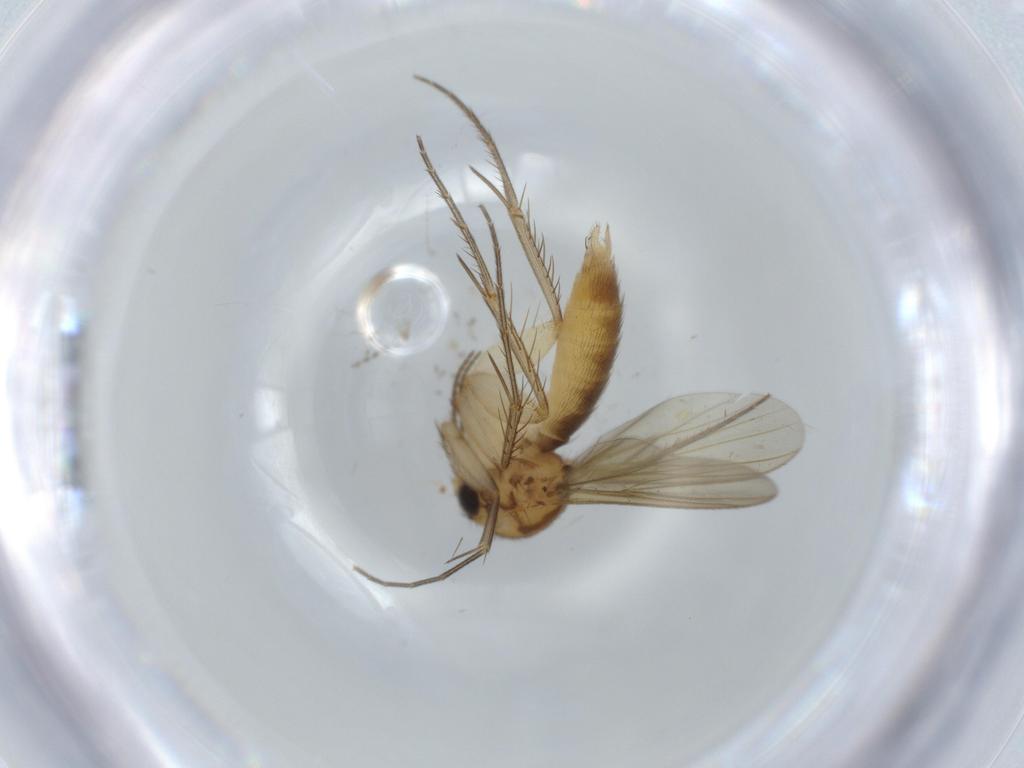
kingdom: Animalia
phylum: Arthropoda
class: Insecta
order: Diptera
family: Mycetophilidae
